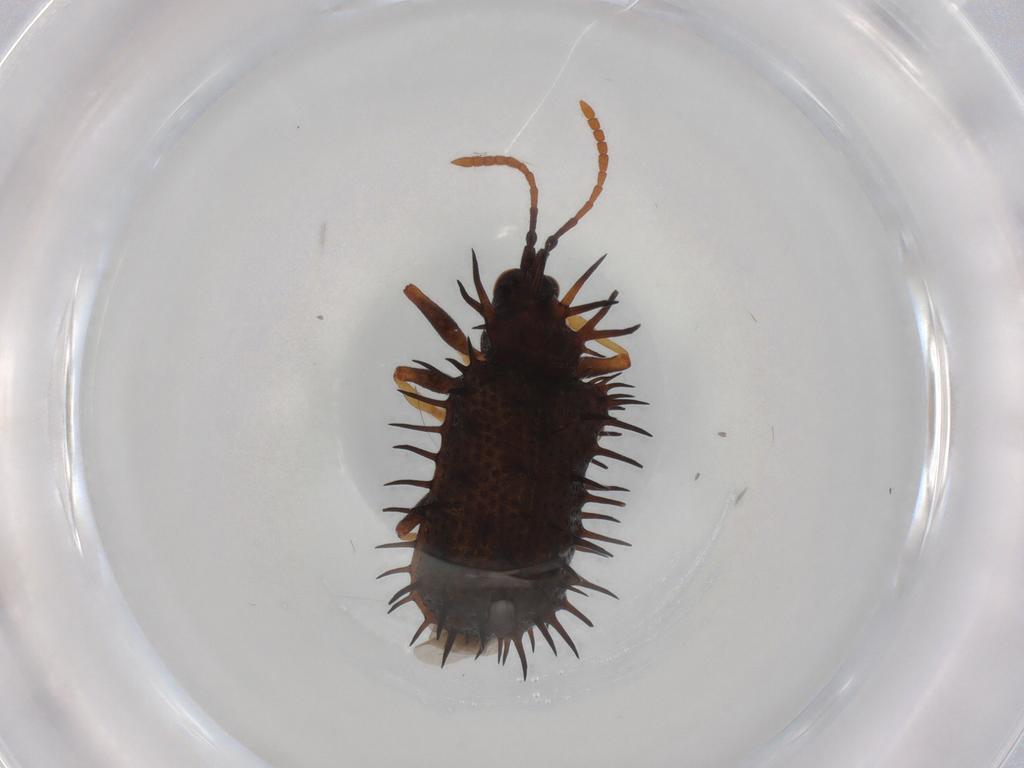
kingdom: Animalia
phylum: Arthropoda
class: Insecta
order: Coleoptera
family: Chrysomelidae
